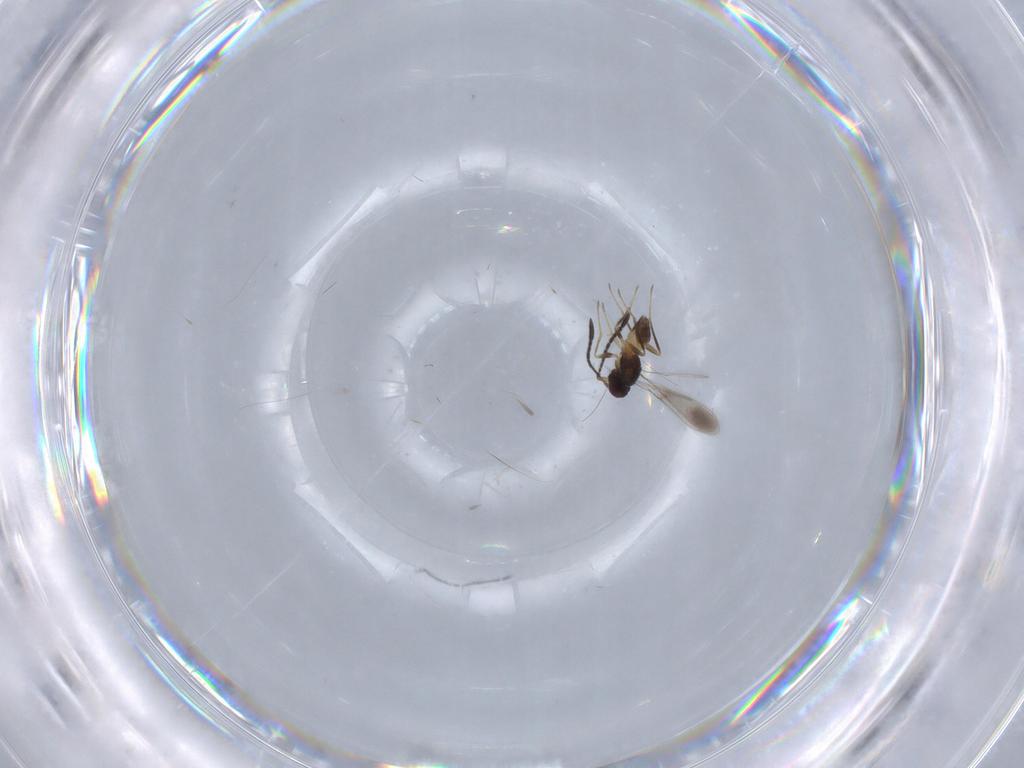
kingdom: Animalia
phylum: Arthropoda
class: Insecta
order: Hymenoptera
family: Mymaridae
